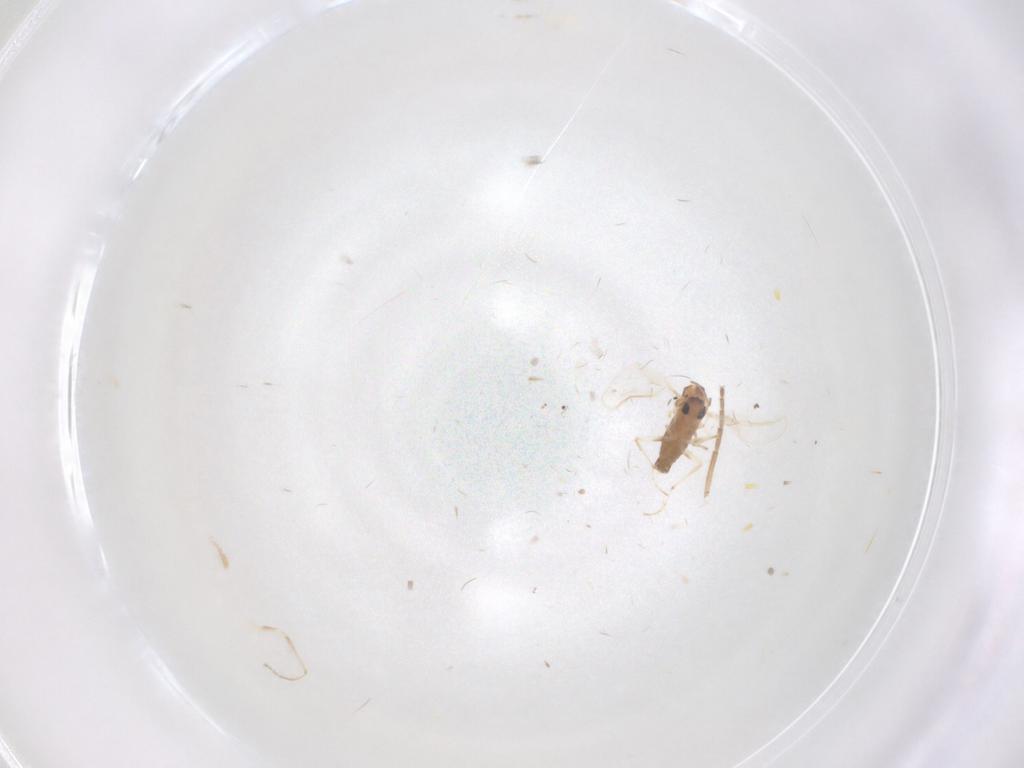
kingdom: Animalia
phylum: Arthropoda
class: Insecta
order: Diptera
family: Chironomidae
